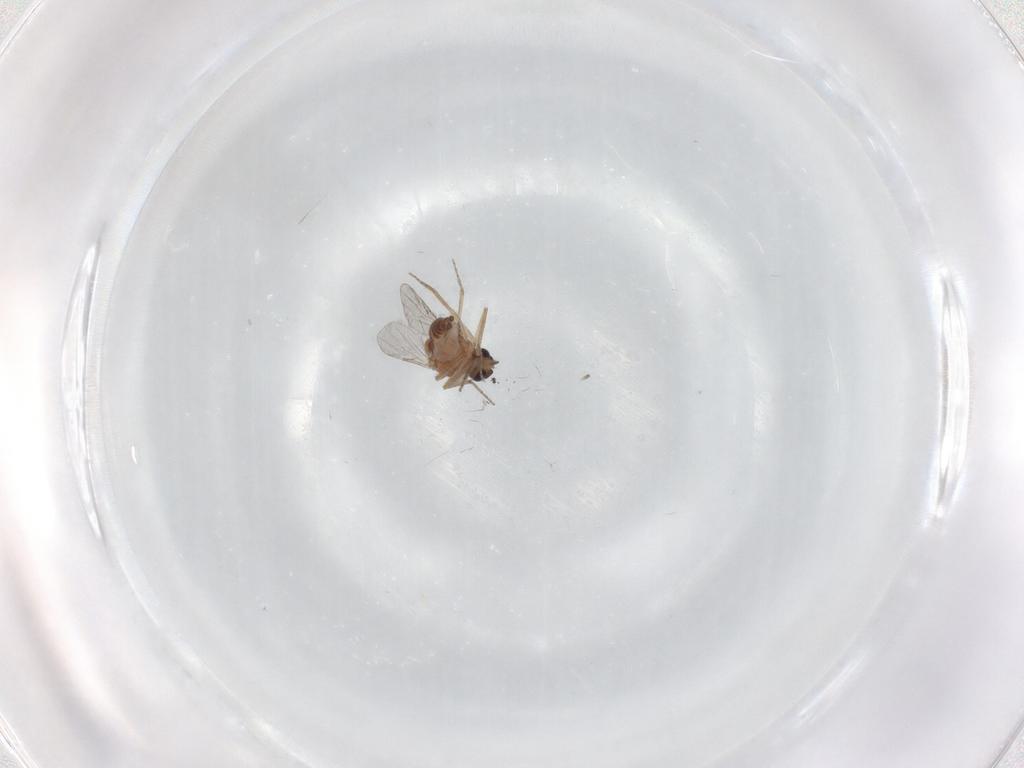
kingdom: Animalia
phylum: Arthropoda
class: Insecta
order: Diptera
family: Ceratopogonidae
